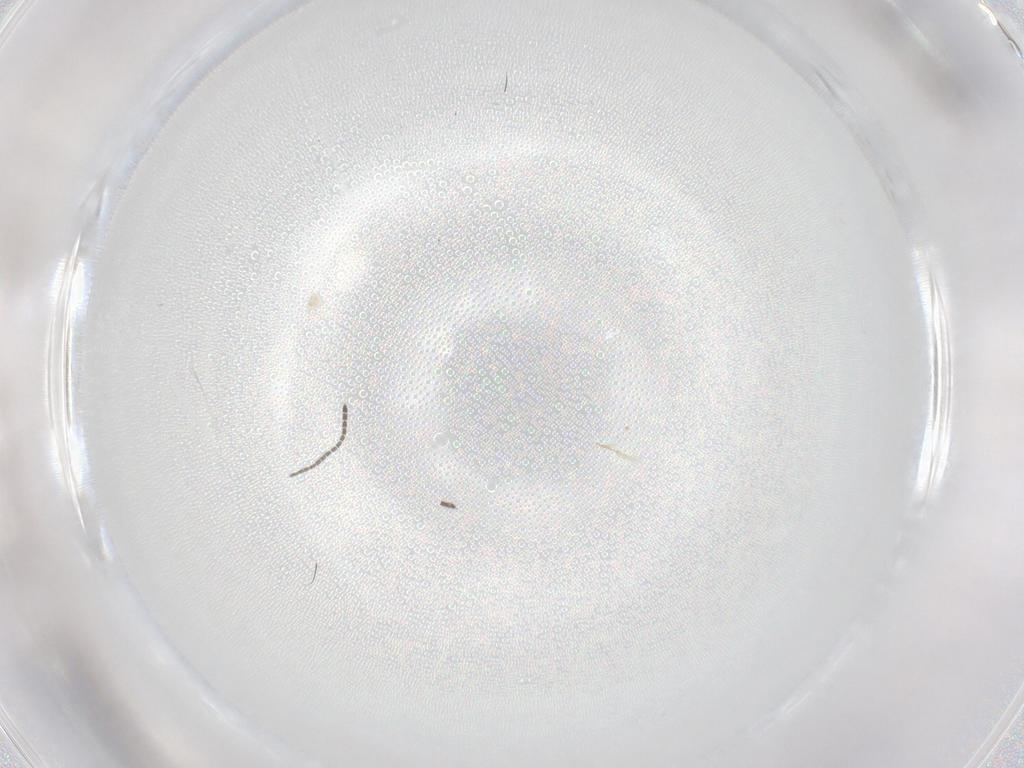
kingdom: Animalia
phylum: Arthropoda
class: Insecta
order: Diptera
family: Sciaridae
